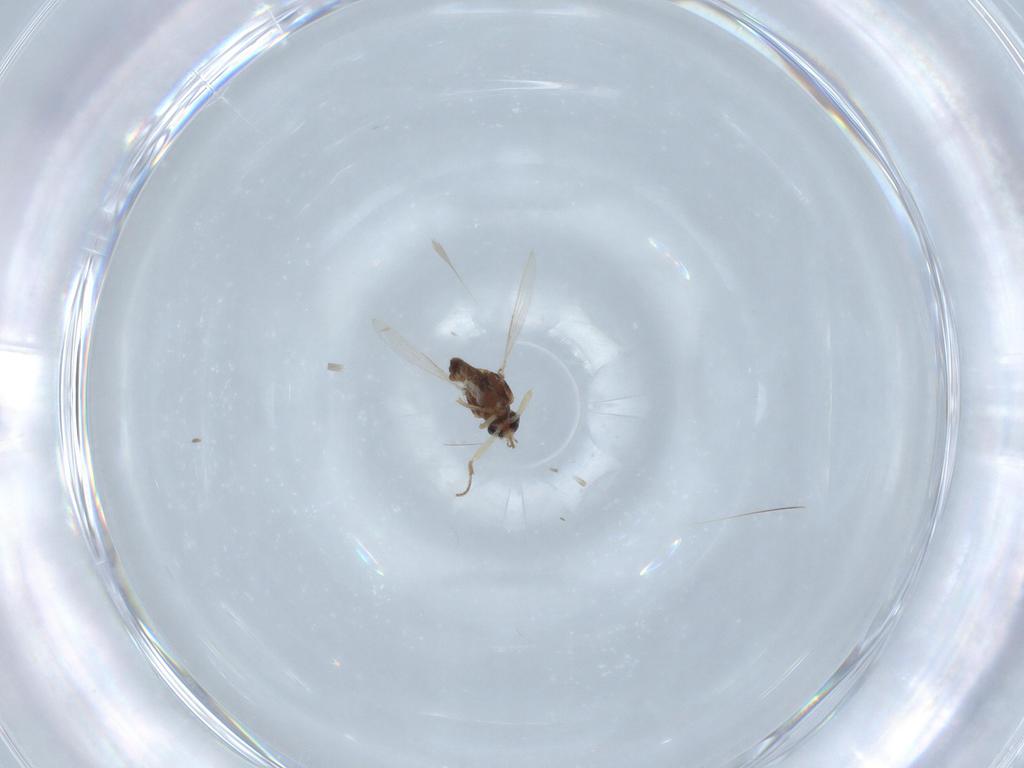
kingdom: Animalia
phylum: Arthropoda
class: Insecta
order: Diptera
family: Ceratopogonidae
